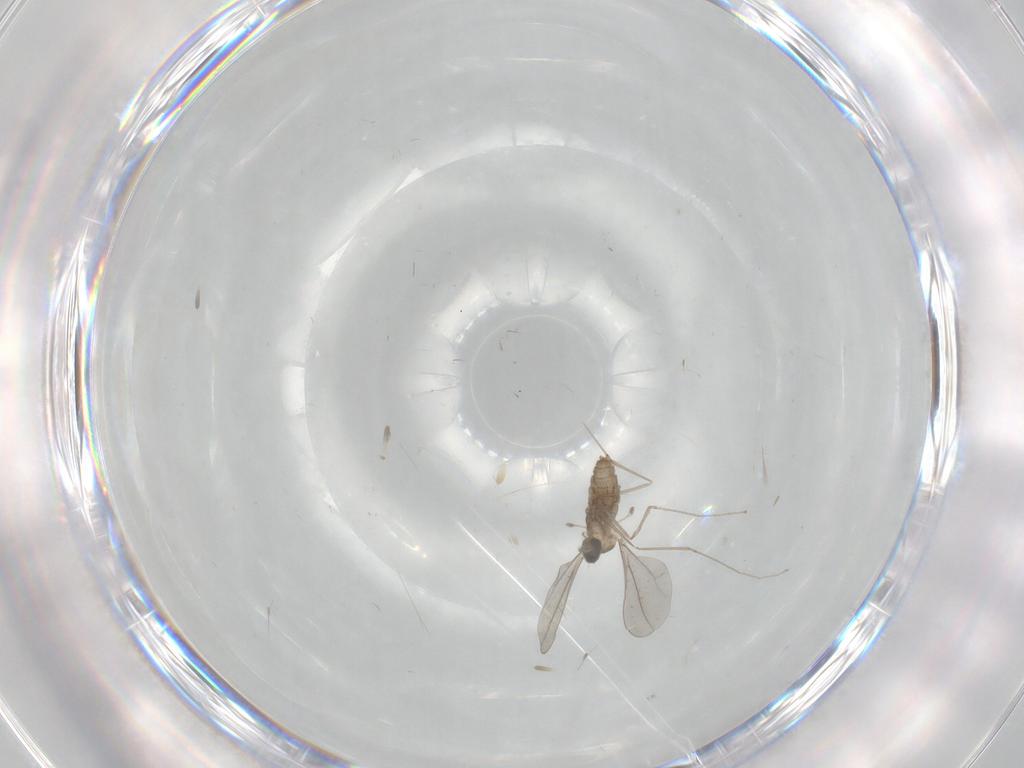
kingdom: Animalia
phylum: Arthropoda
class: Insecta
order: Diptera
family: Cecidomyiidae
